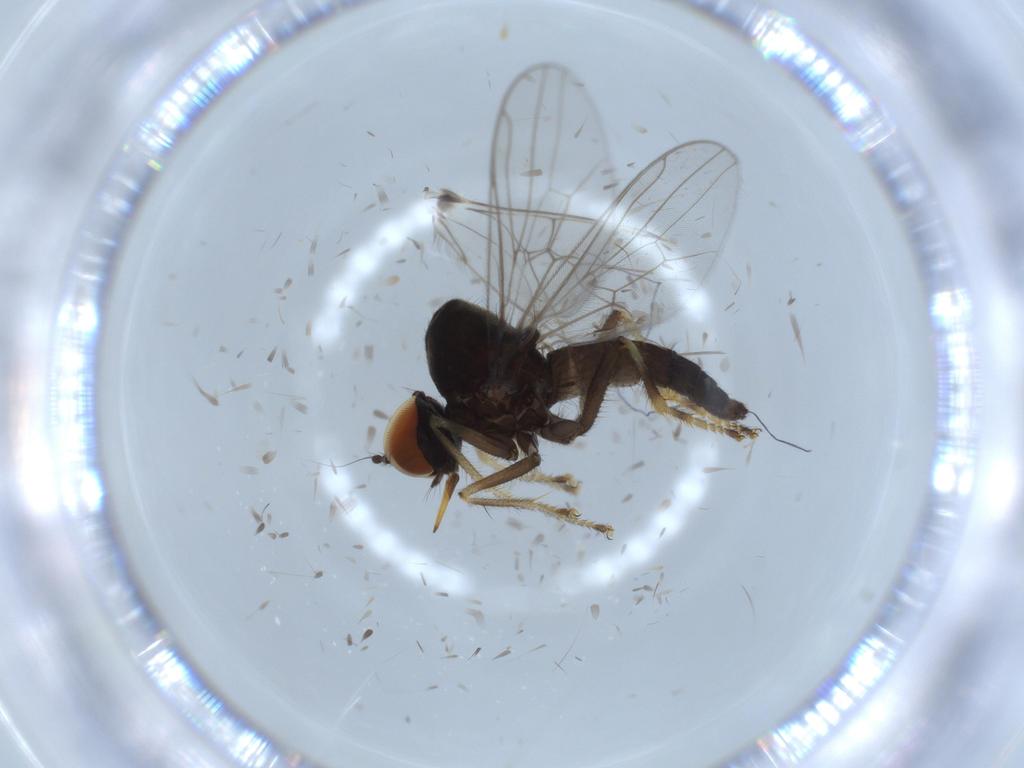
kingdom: Animalia
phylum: Arthropoda
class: Insecta
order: Diptera
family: Hybotidae
